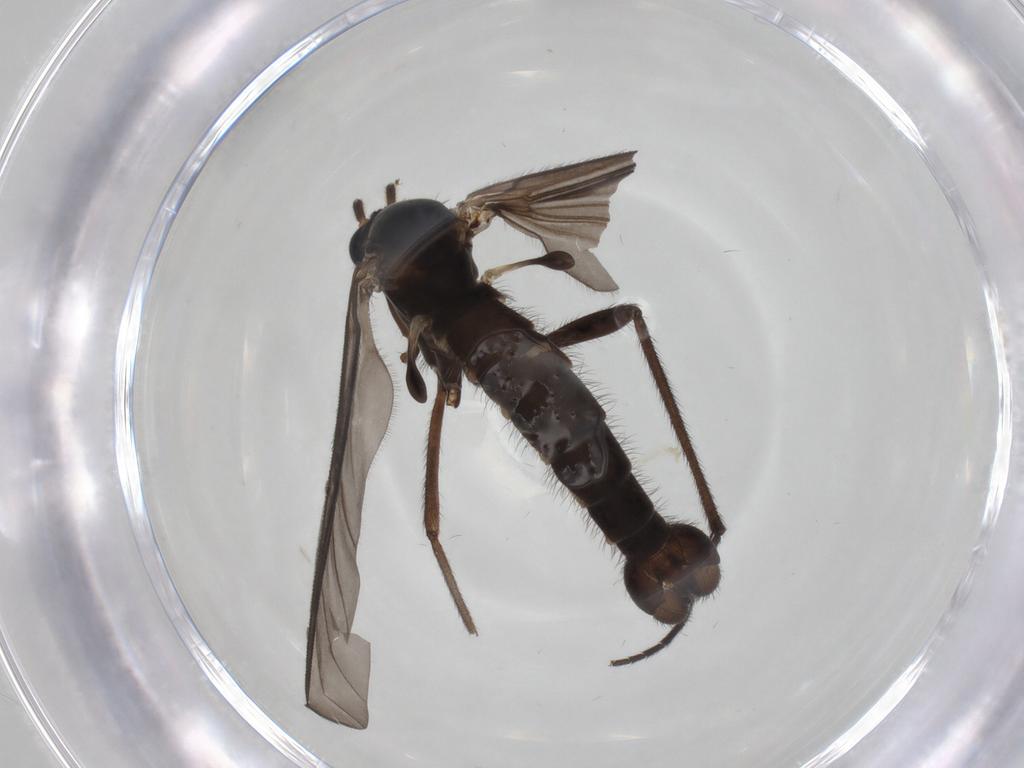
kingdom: Animalia
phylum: Arthropoda
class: Insecta
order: Diptera
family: Sciaridae
